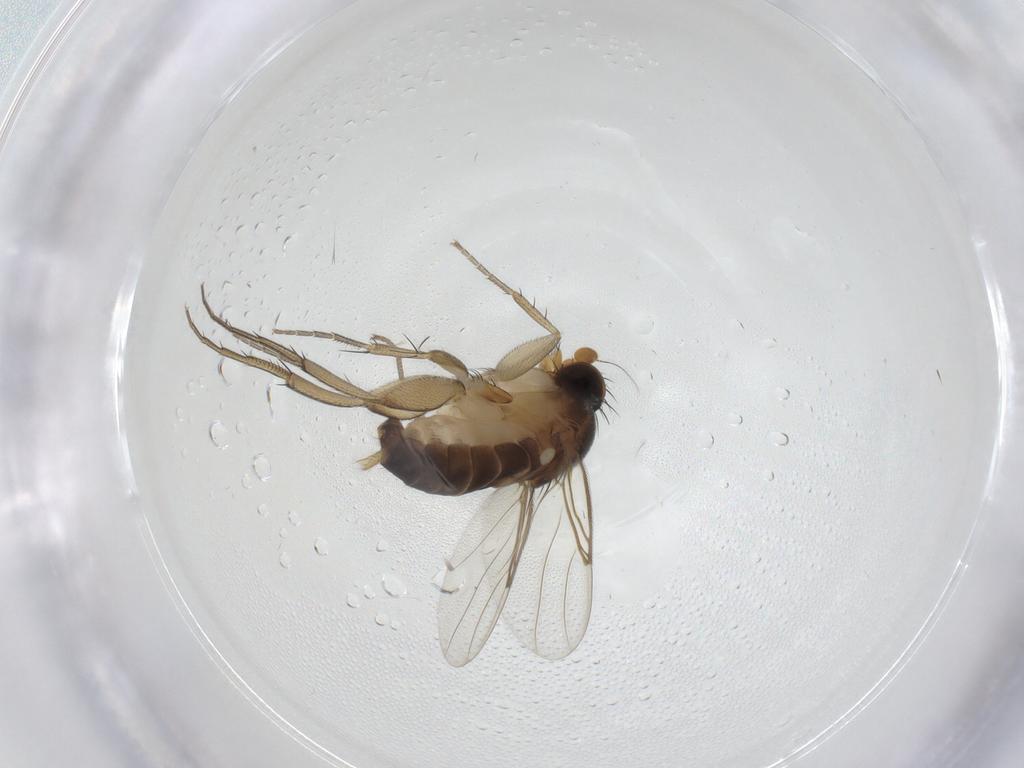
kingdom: Animalia
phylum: Arthropoda
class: Insecta
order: Diptera
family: Phoridae
